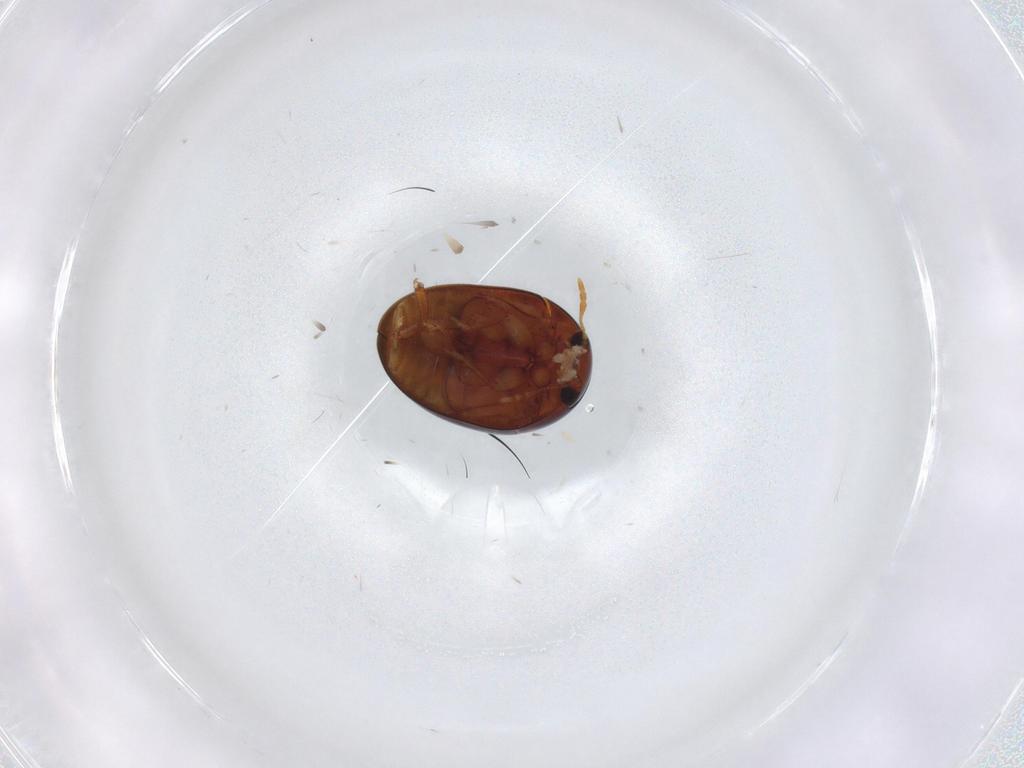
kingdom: Animalia
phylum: Arthropoda
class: Insecta
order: Coleoptera
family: Phalacridae
